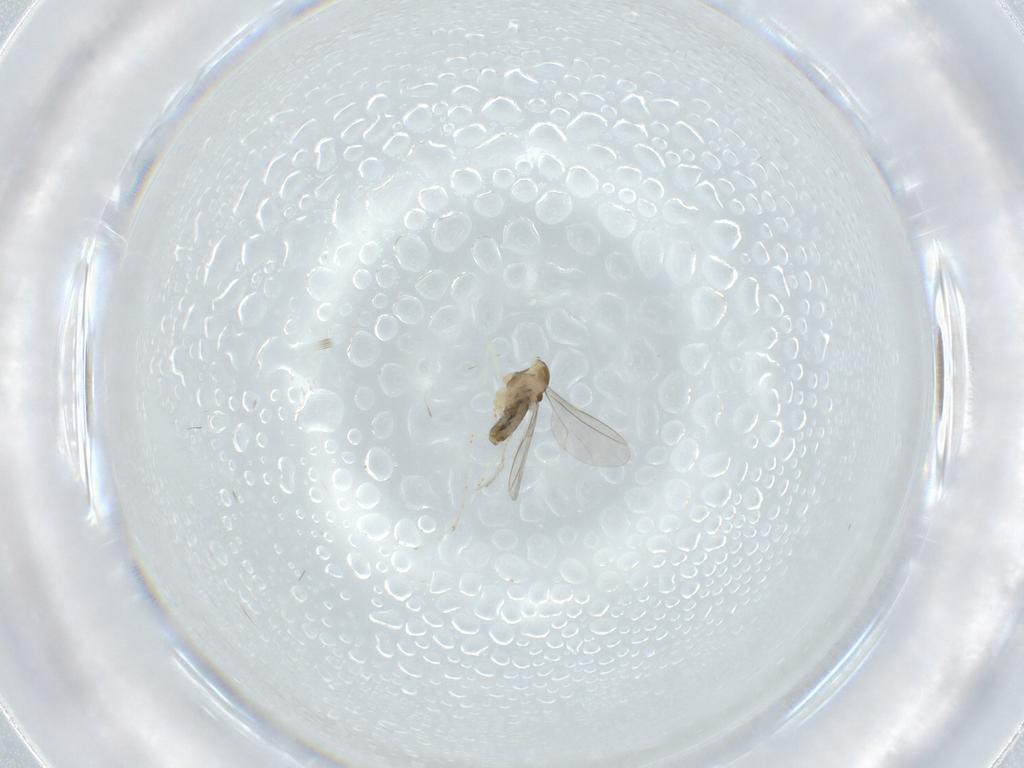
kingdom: Animalia
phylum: Arthropoda
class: Insecta
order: Diptera
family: Cecidomyiidae
